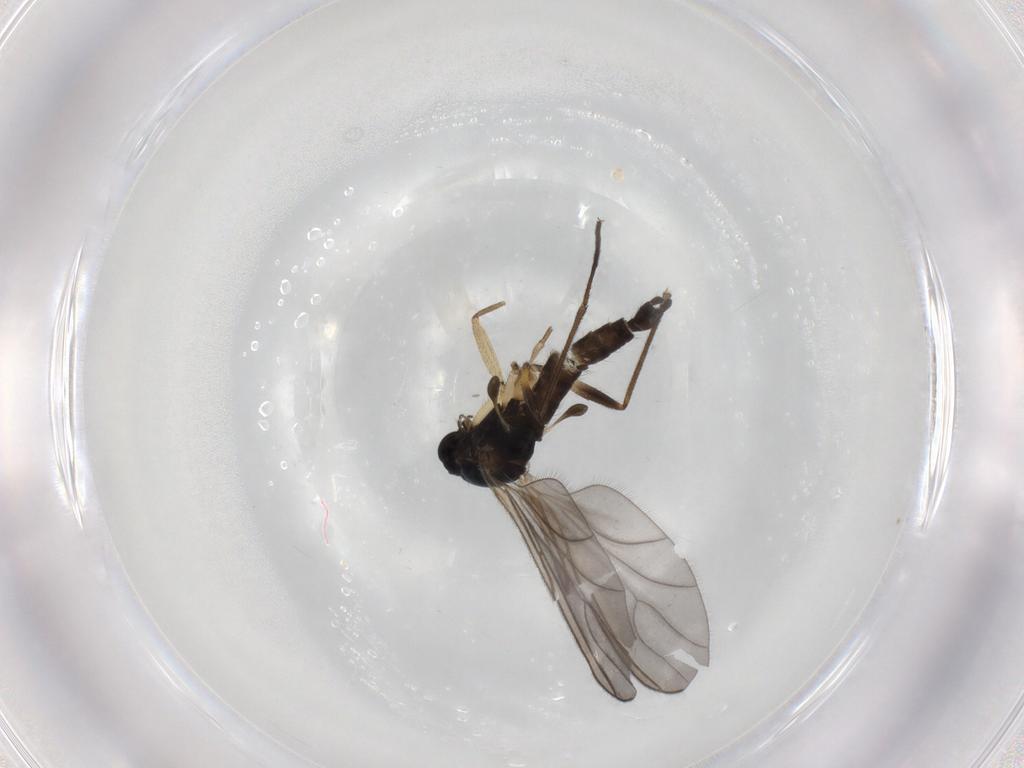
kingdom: Animalia
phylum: Arthropoda
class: Insecta
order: Diptera
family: Sciaridae
